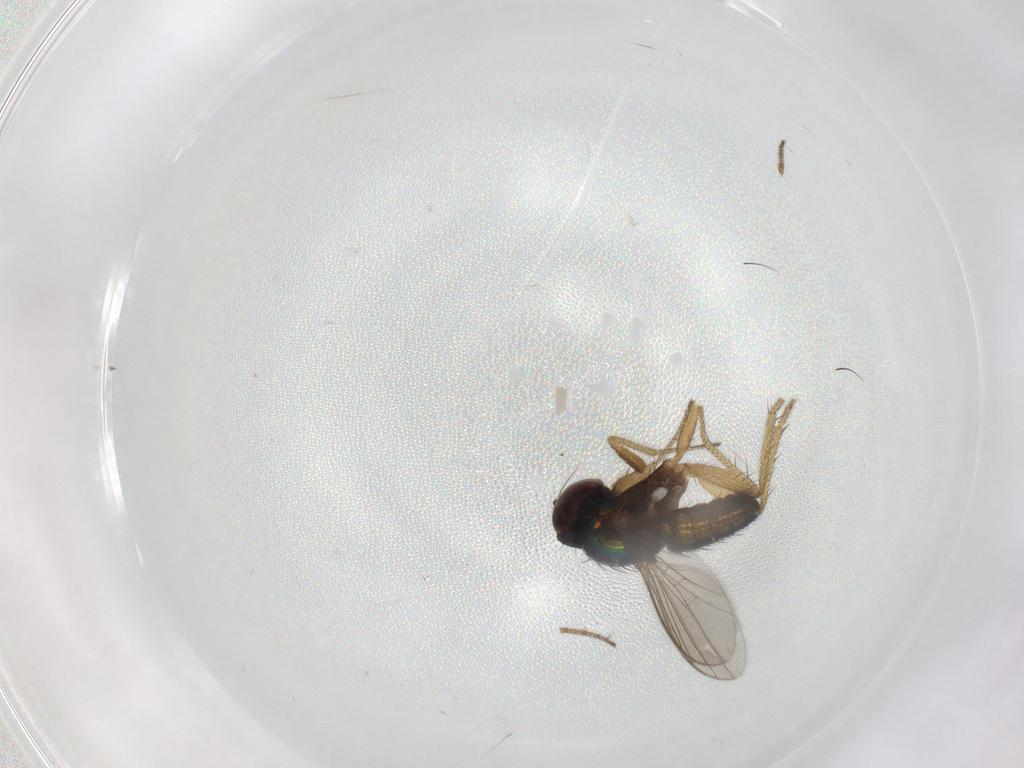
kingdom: Animalia
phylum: Arthropoda
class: Insecta
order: Diptera
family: Dolichopodidae
